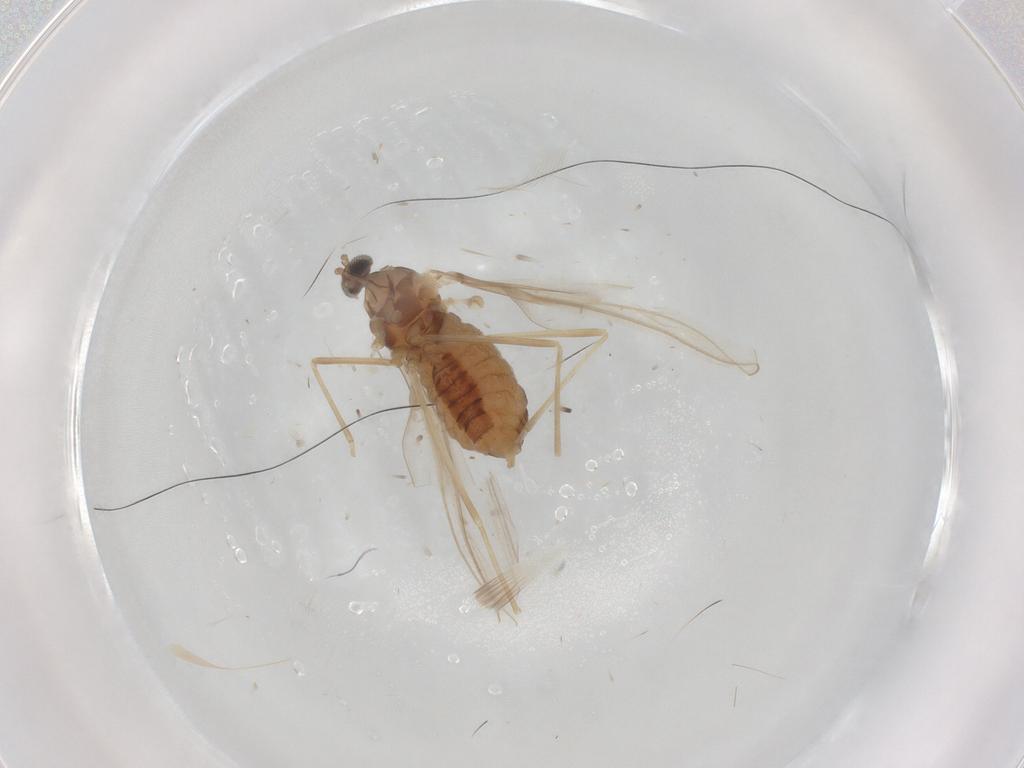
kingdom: Animalia
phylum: Arthropoda
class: Insecta
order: Diptera
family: Cecidomyiidae
